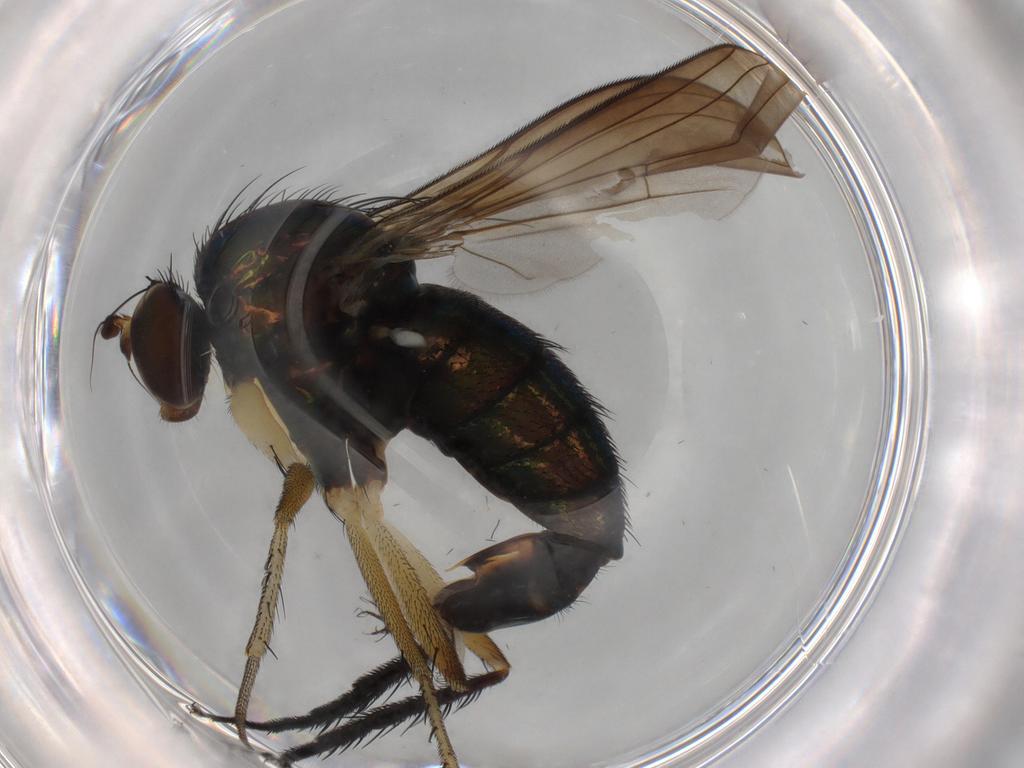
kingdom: Animalia
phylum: Arthropoda
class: Insecta
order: Diptera
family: Dolichopodidae
